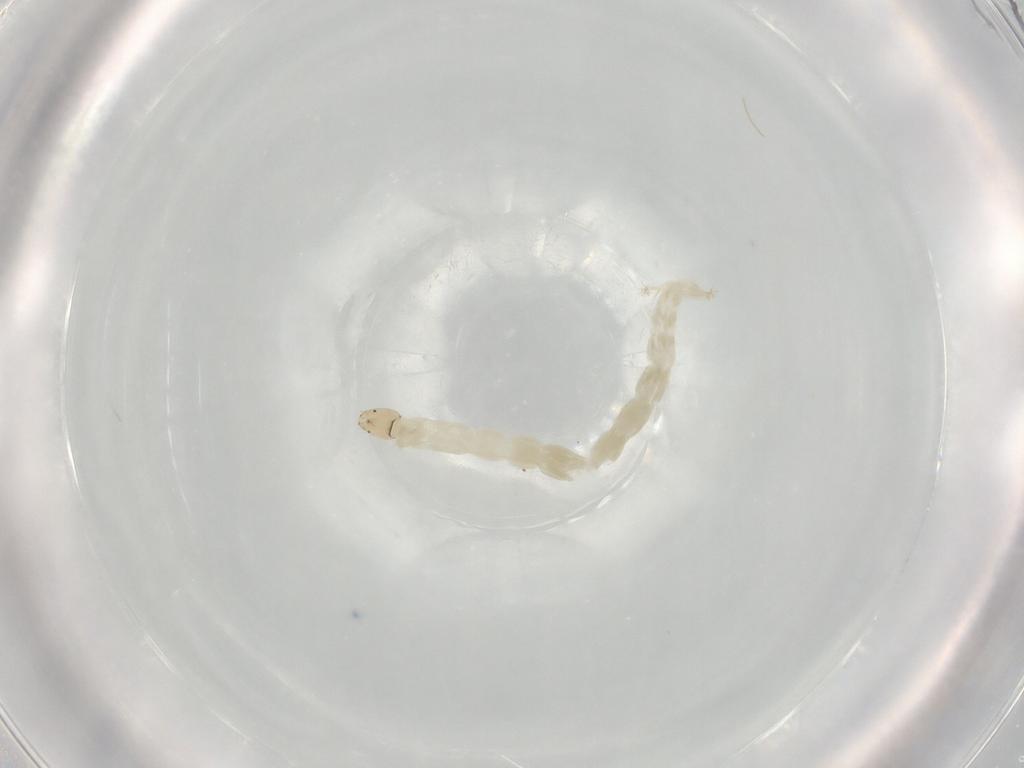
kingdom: Animalia
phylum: Arthropoda
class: Insecta
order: Diptera
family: Chironomidae
